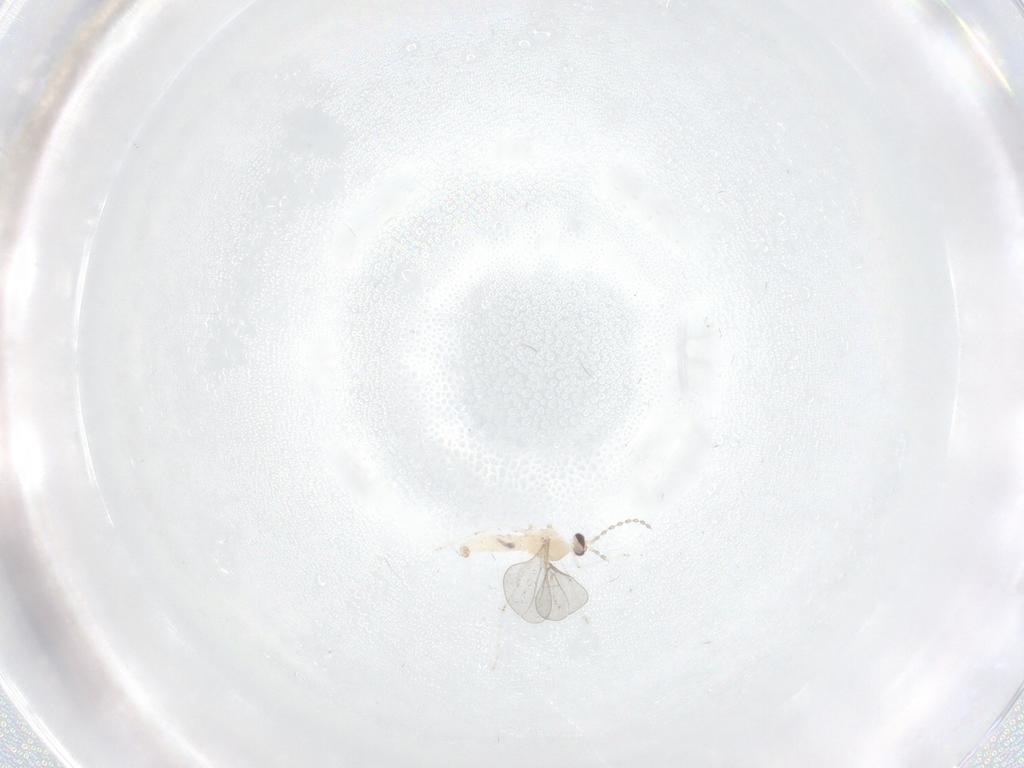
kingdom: Animalia
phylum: Arthropoda
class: Insecta
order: Diptera
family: Cecidomyiidae
